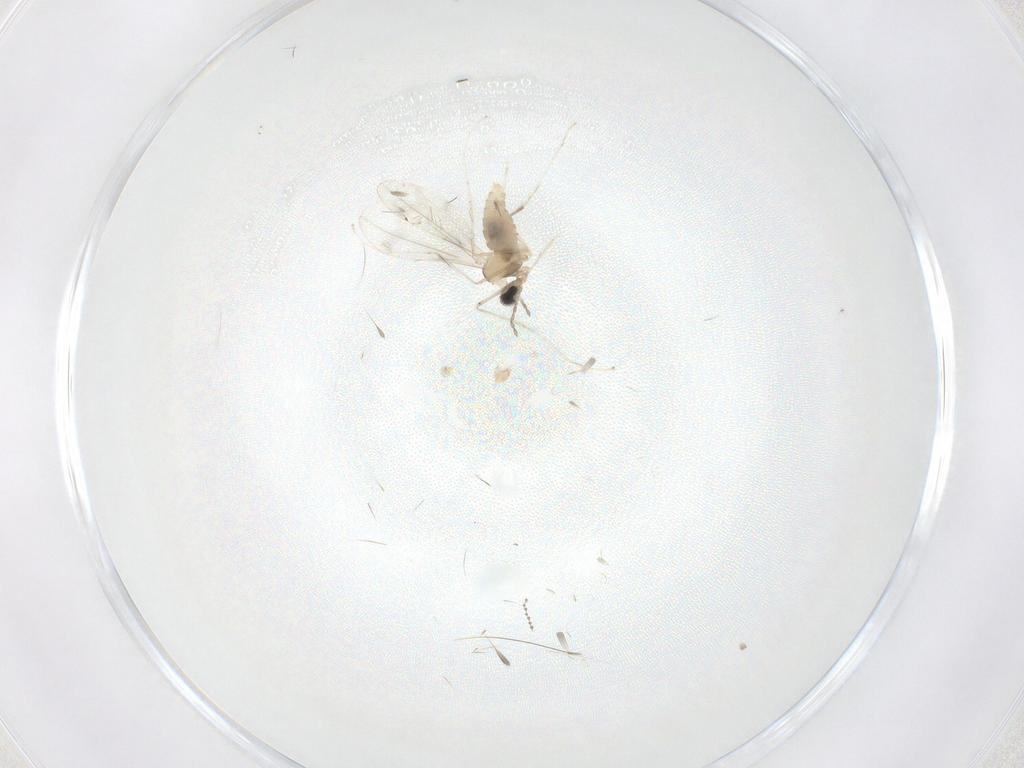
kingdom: Animalia
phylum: Arthropoda
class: Insecta
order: Diptera
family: Cecidomyiidae
